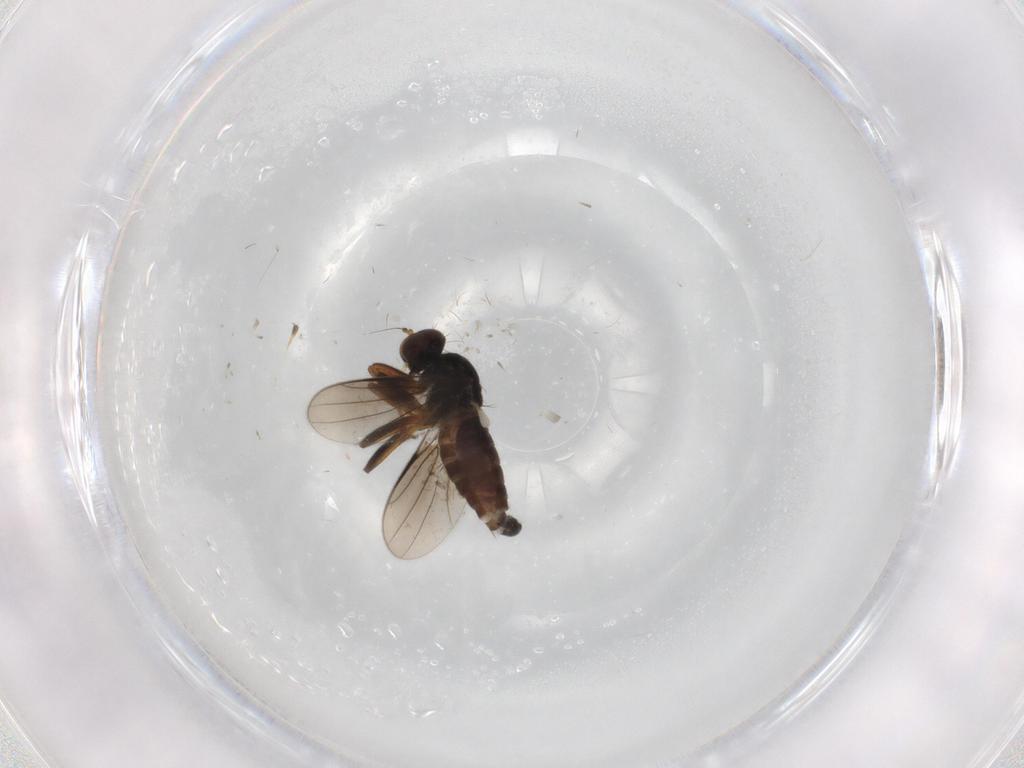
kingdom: Animalia
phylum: Arthropoda
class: Insecta
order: Diptera
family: Hybotidae
